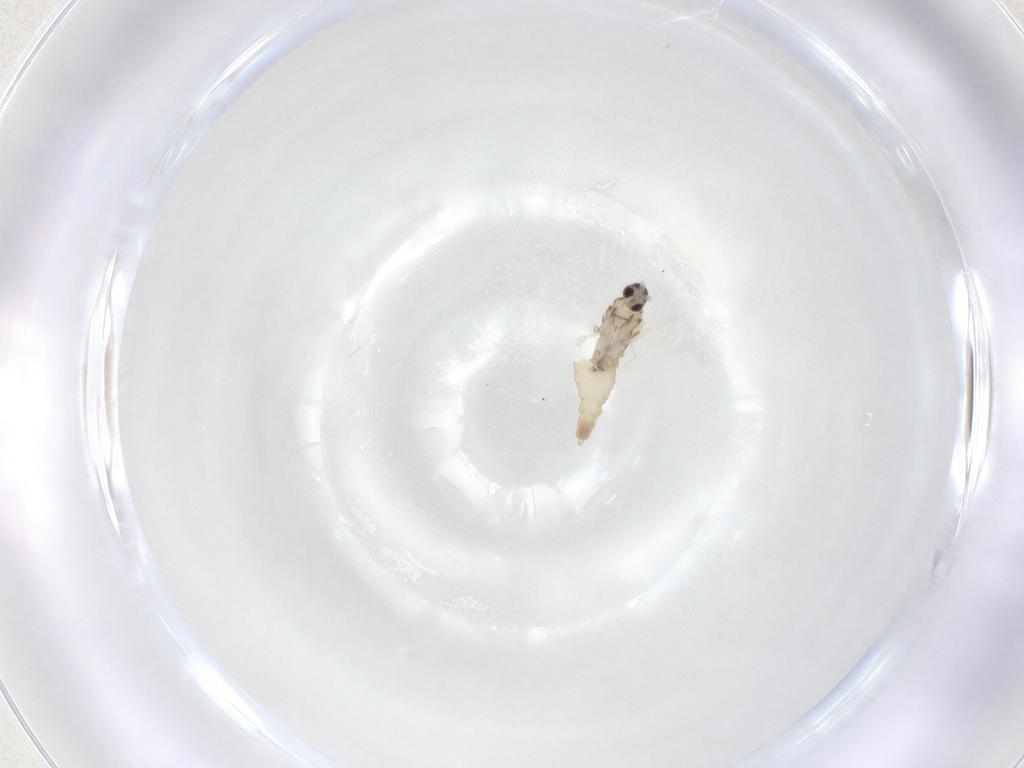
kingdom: Animalia
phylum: Arthropoda
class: Insecta
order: Diptera
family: Cecidomyiidae
